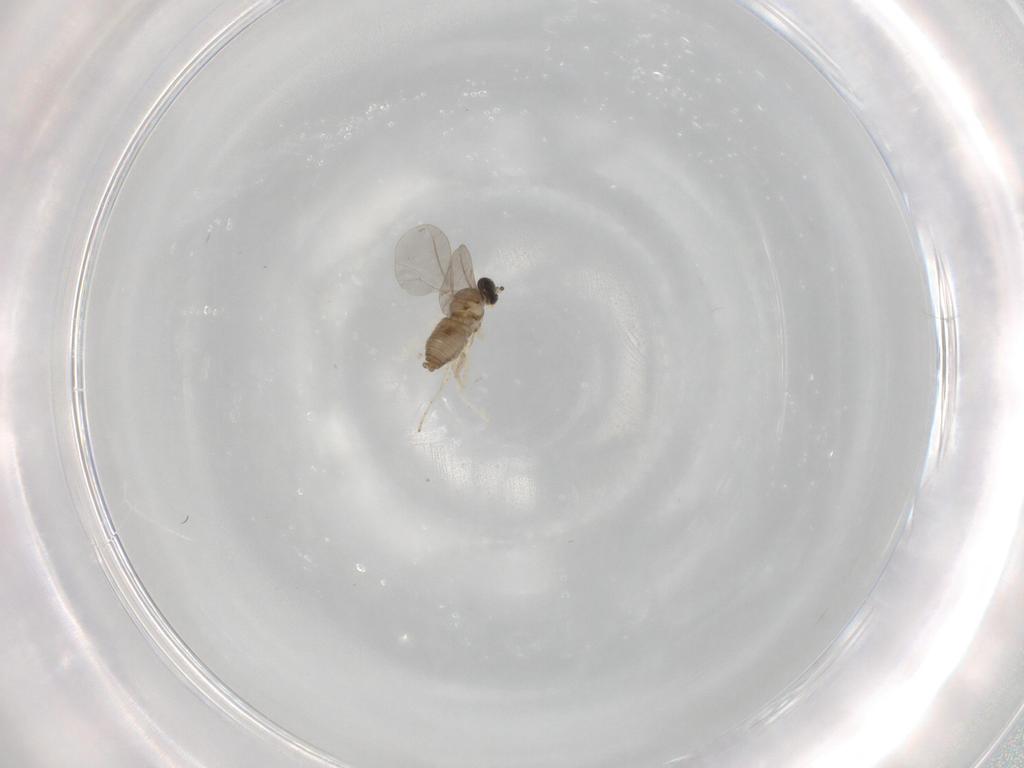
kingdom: Animalia
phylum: Arthropoda
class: Insecta
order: Diptera
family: Cecidomyiidae
